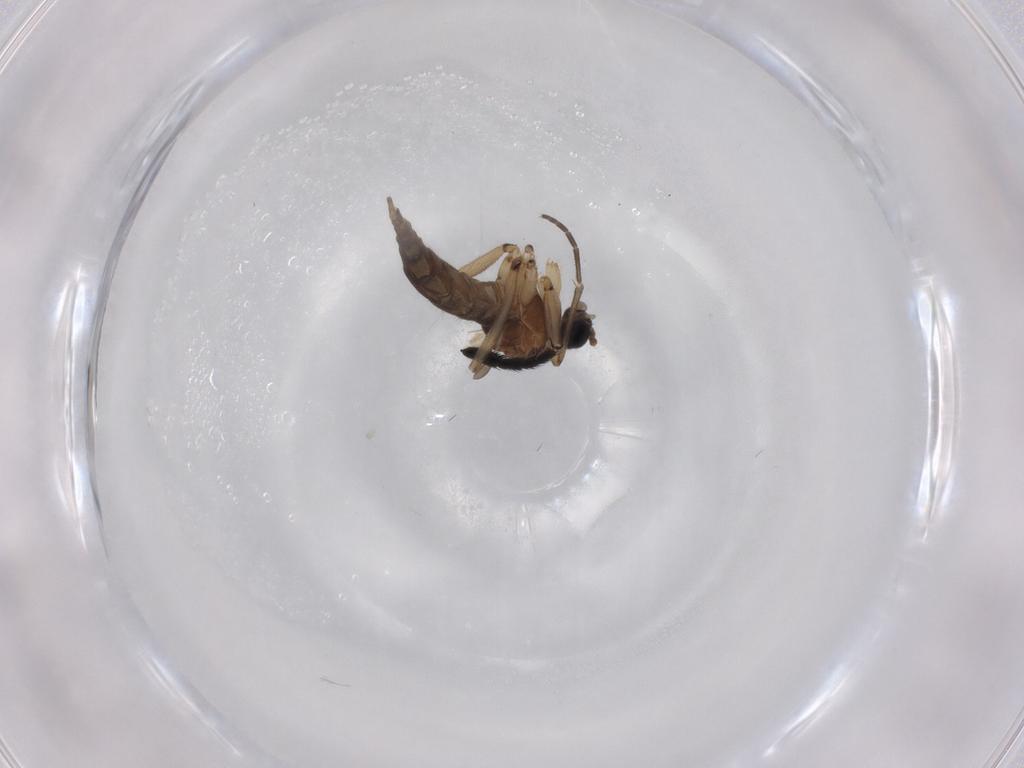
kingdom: Animalia
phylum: Arthropoda
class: Insecta
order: Diptera
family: Sciaridae
